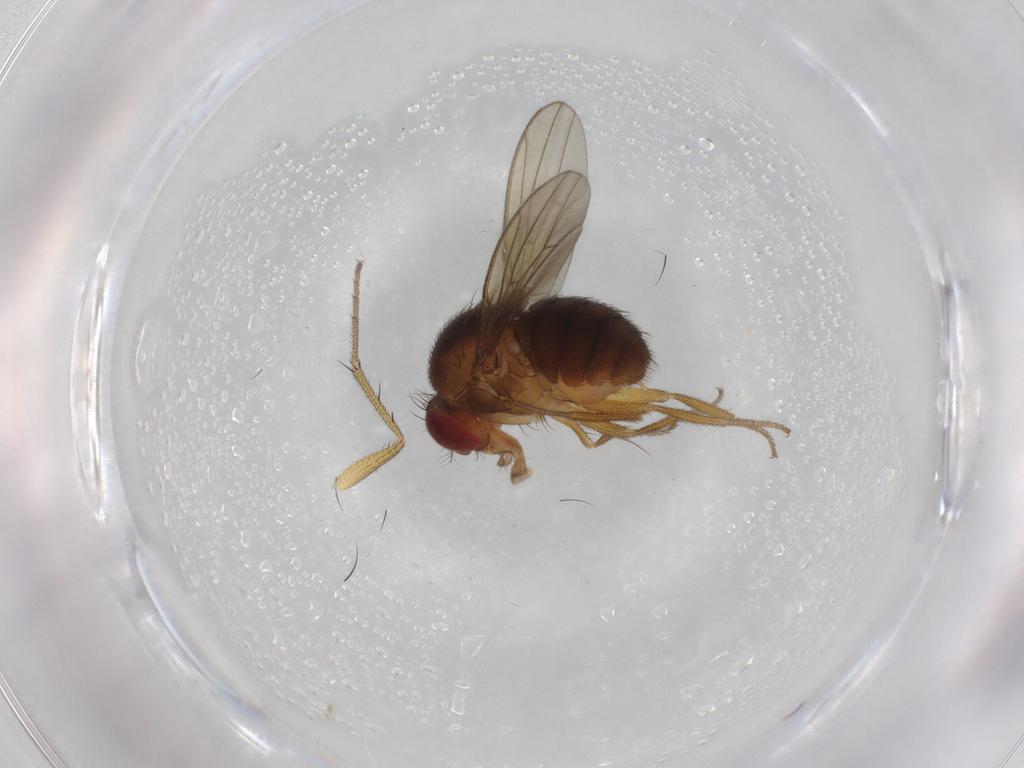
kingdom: Animalia
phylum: Arthropoda
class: Insecta
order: Diptera
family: Drosophilidae
